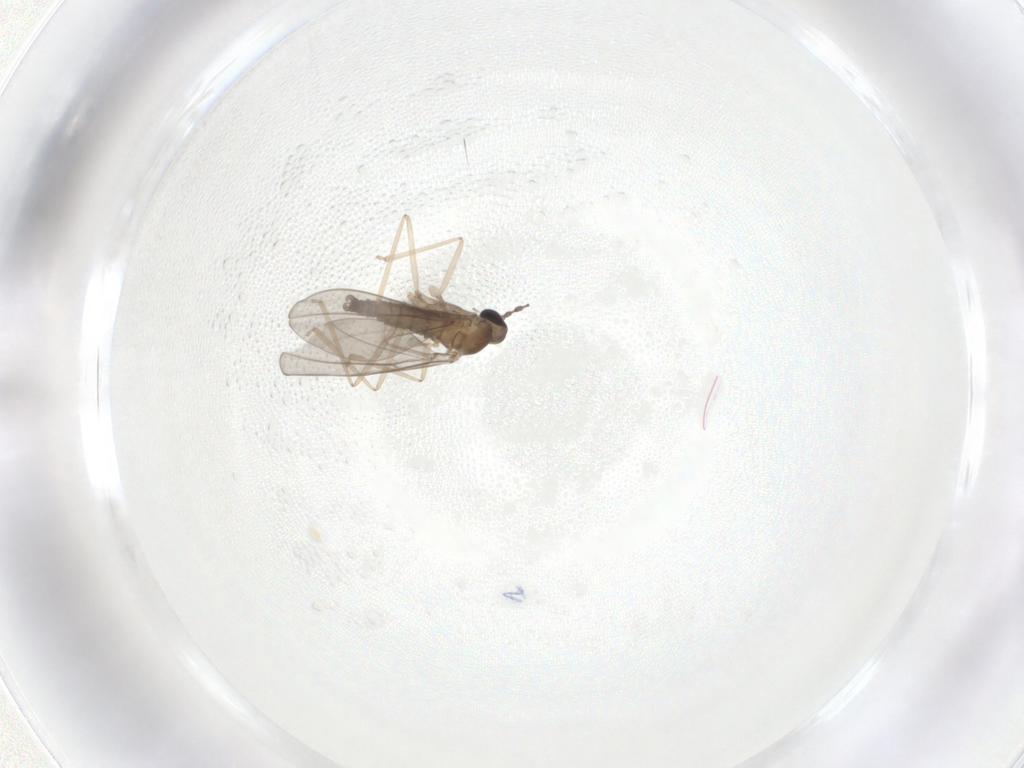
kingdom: Animalia
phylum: Arthropoda
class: Insecta
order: Diptera
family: Cecidomyiidae
